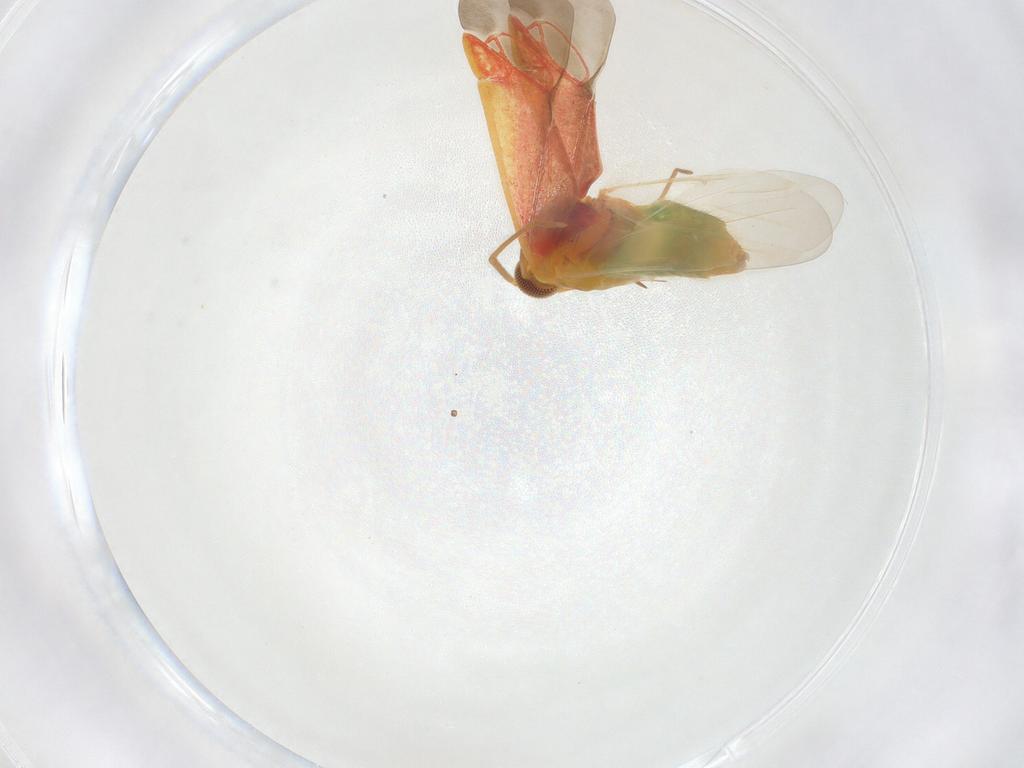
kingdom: Animalia
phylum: Arthropoda
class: Insecta
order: Hemiptera
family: Miridae
